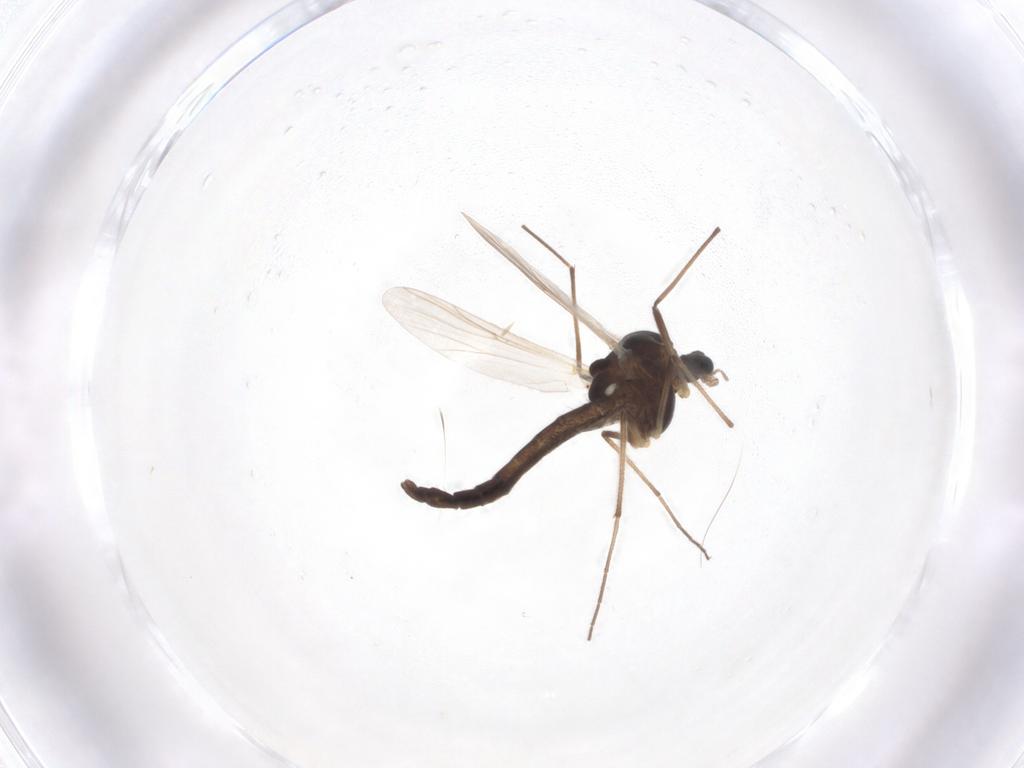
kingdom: Animalia
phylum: Arthropoda
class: Insecta
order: Diptera
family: Chironomidae
